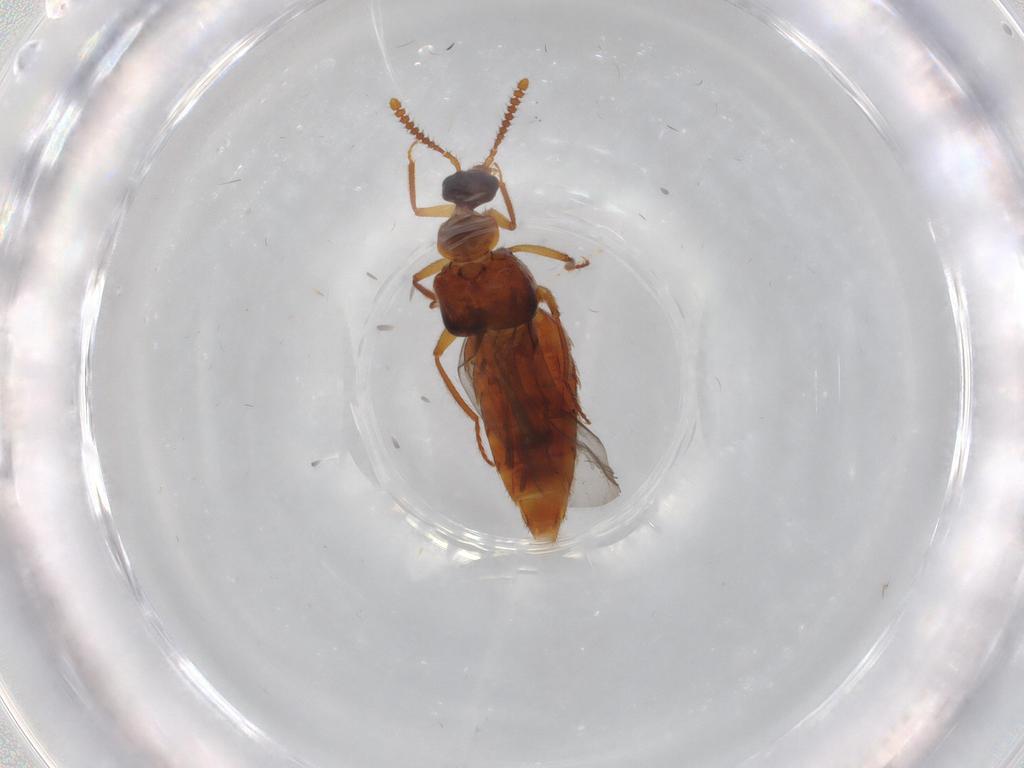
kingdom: Animalia
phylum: Arthropoda
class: Insecta
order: Coleoptera
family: Staphylinidae
